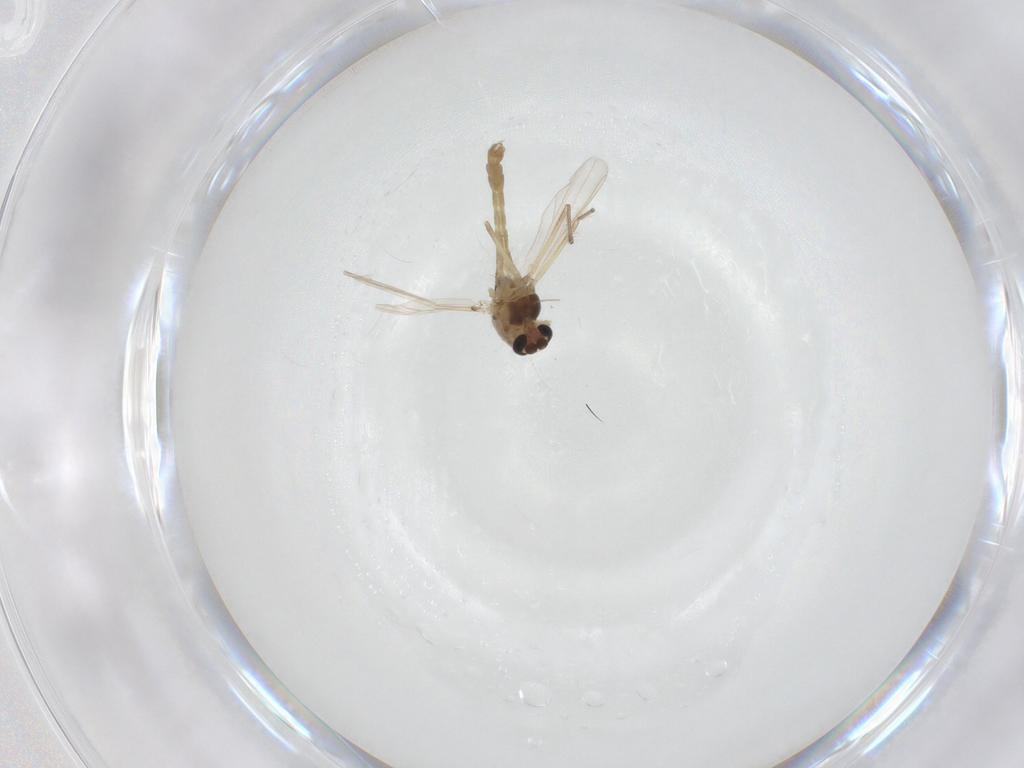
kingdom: Animalia
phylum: Arthropoda
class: Insecta
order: Diptera
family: Chironomidae
